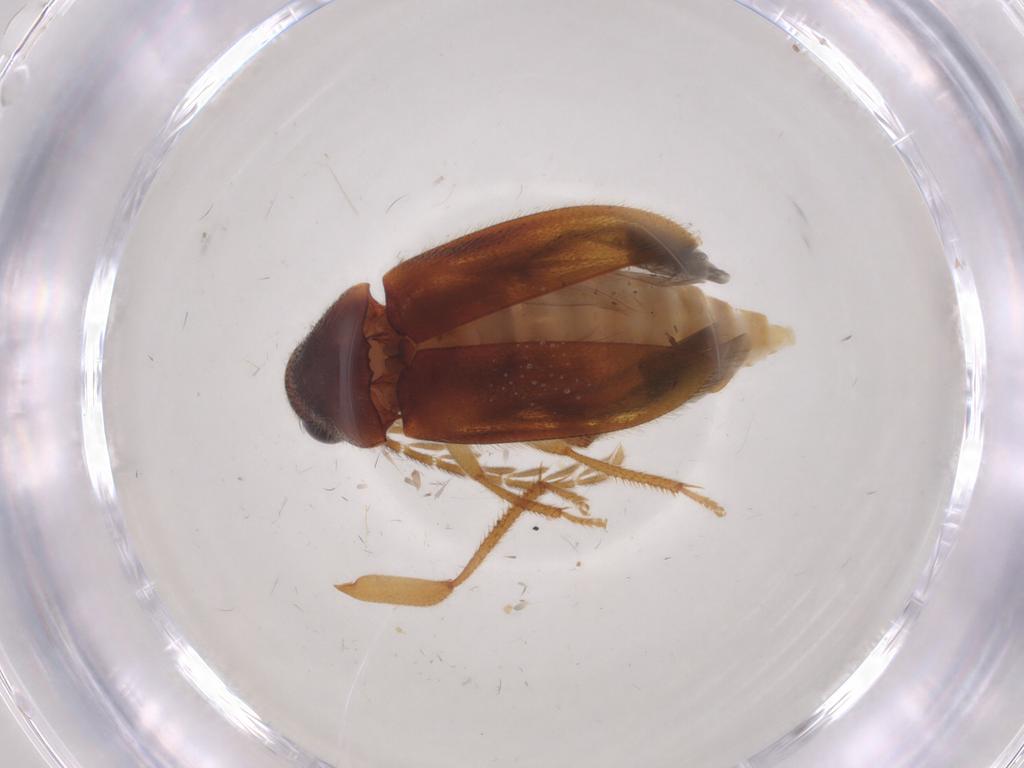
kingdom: Animalia
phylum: Arthropoda
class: Insecta
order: Coleoptera
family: Ptilodactylidae
